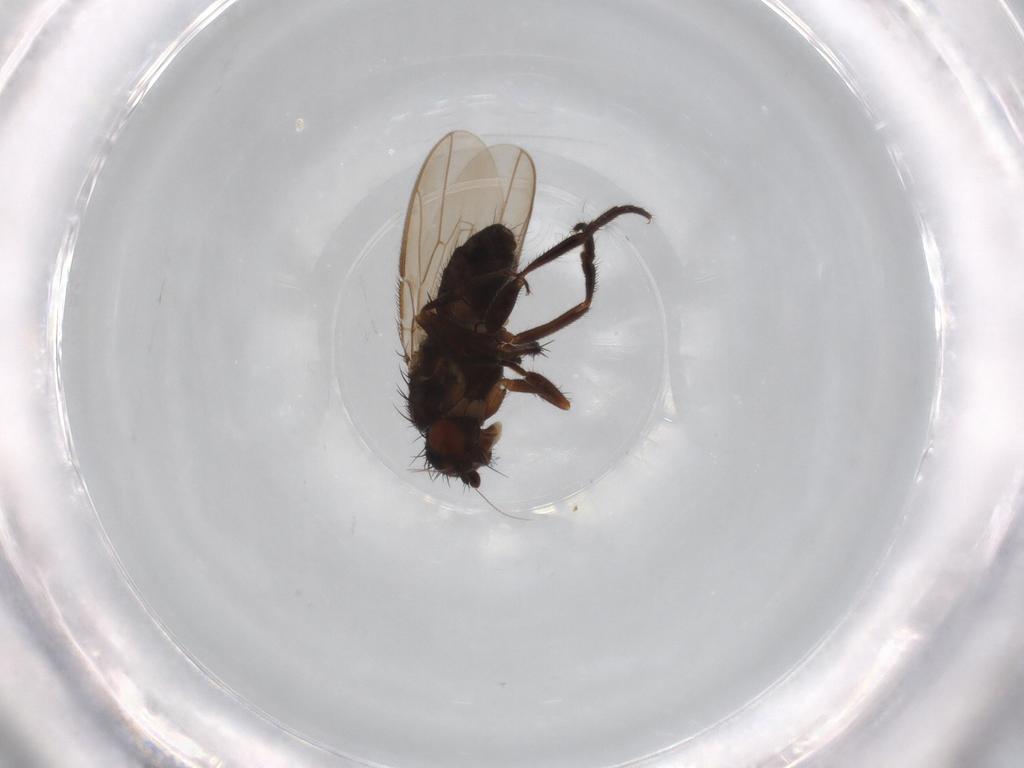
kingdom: Animalia
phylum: Arthropoda
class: Insecta
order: Diptera
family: Sphaeroceridae
